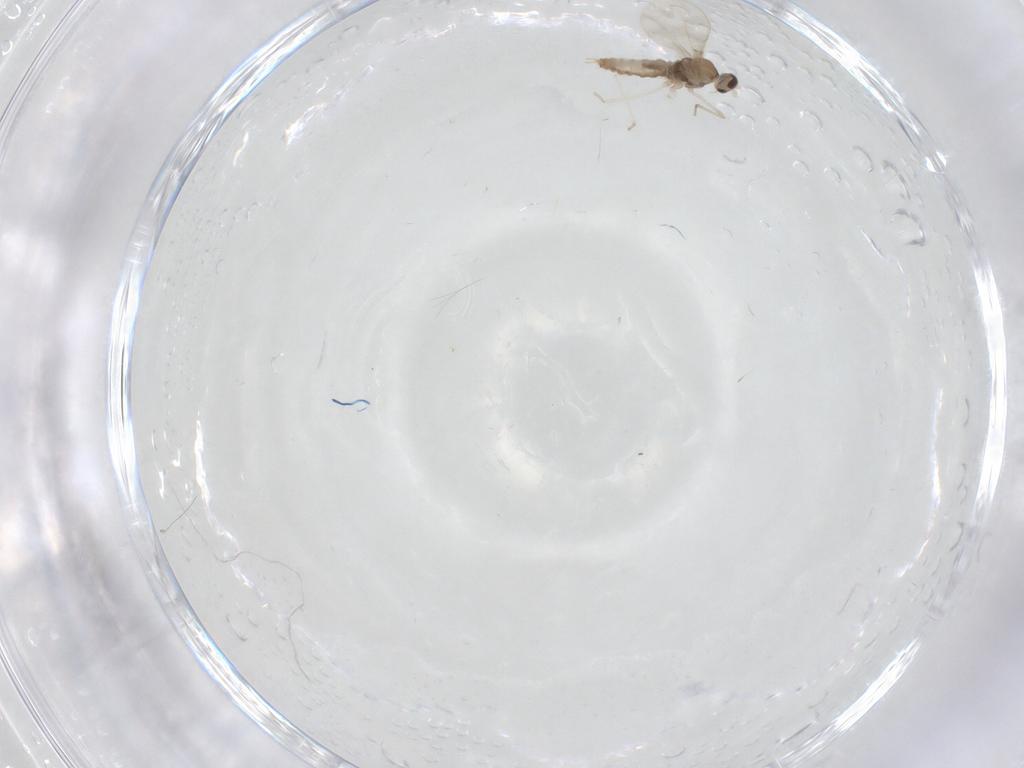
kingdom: Animalia
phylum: Arthropoda
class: Insecta
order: Diptera
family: Cecidomyiidae
